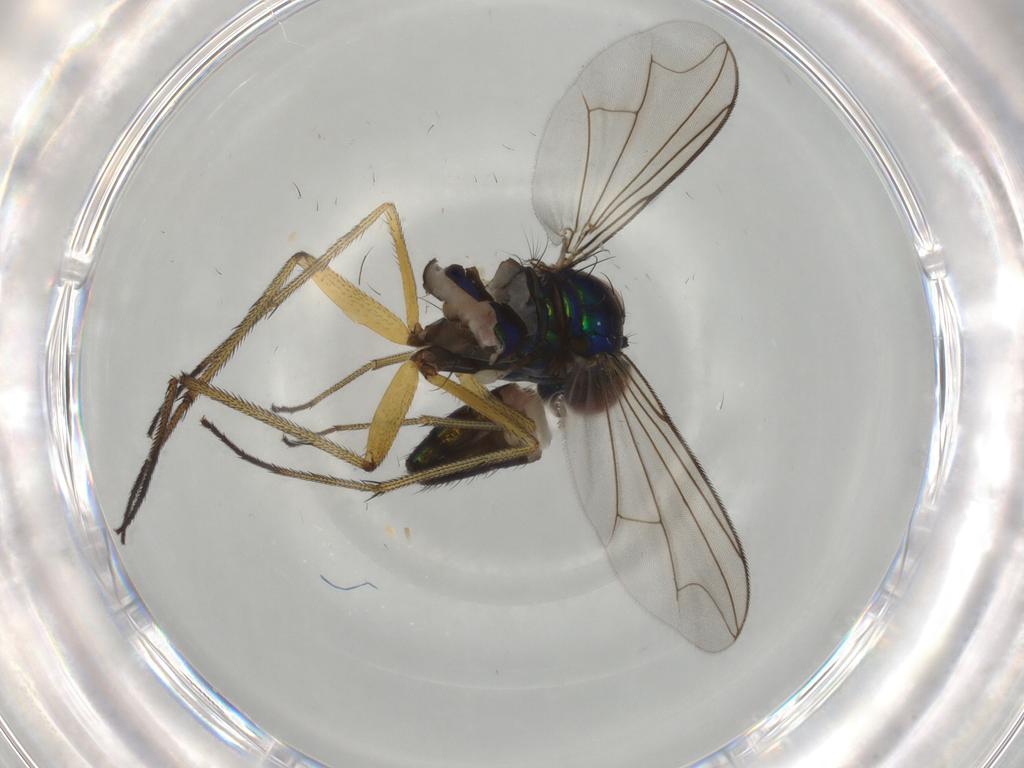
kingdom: Animalia
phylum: Arthropoda
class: Insecta
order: Diptera
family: Dolichopodidae
